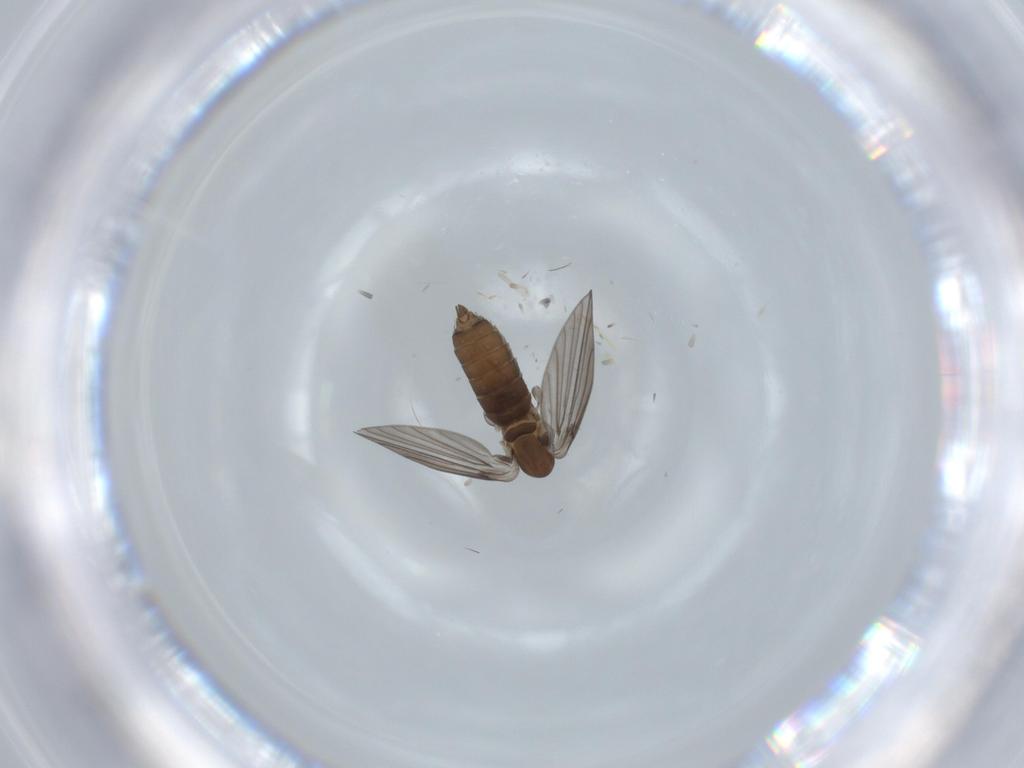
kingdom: Animalia
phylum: Arthropoda
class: Insecta
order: Diptera
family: Psychodidae
